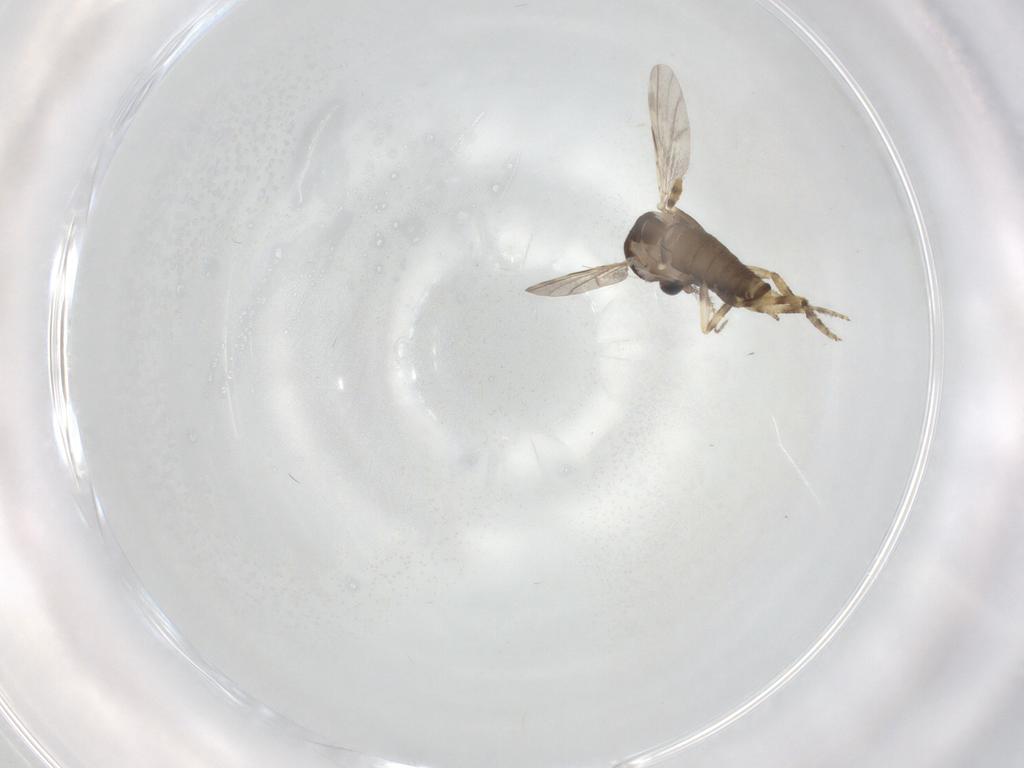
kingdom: Animalia
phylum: Arthropoda
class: Insecta
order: Diptera
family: Ceratopogonidae
